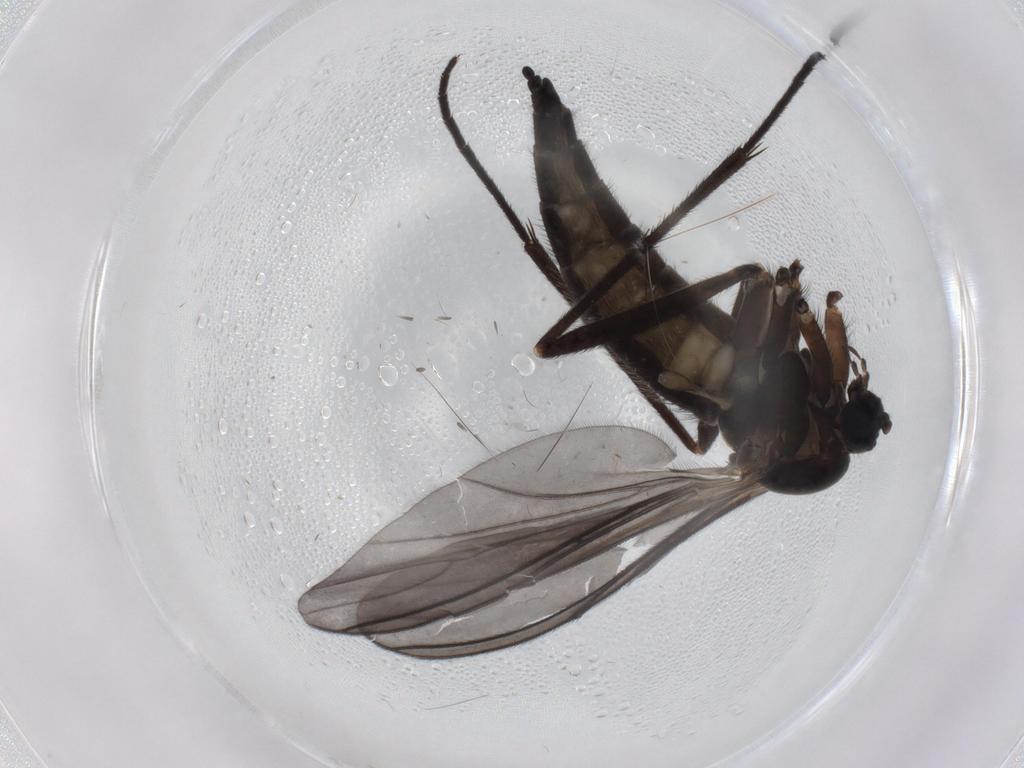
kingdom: Animalia
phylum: Arthropoda
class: Insecta
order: Diptera
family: Sciaridae
